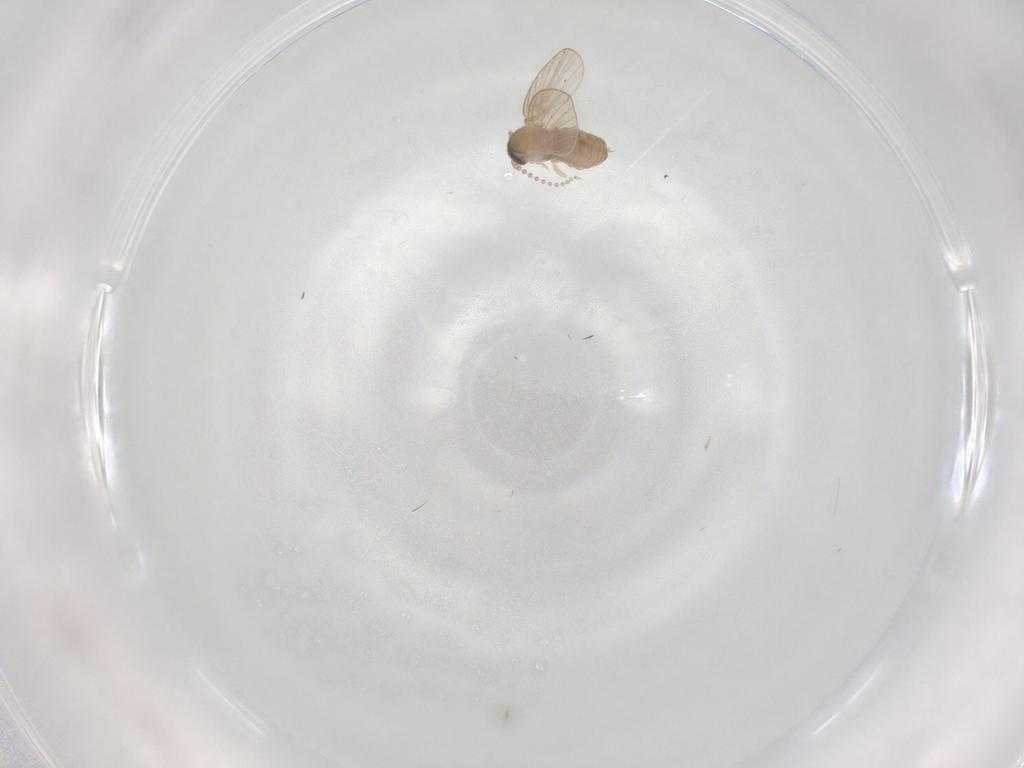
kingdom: Animalia
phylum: Arthropoda
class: Insecta
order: Diptera
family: Psychodidae
